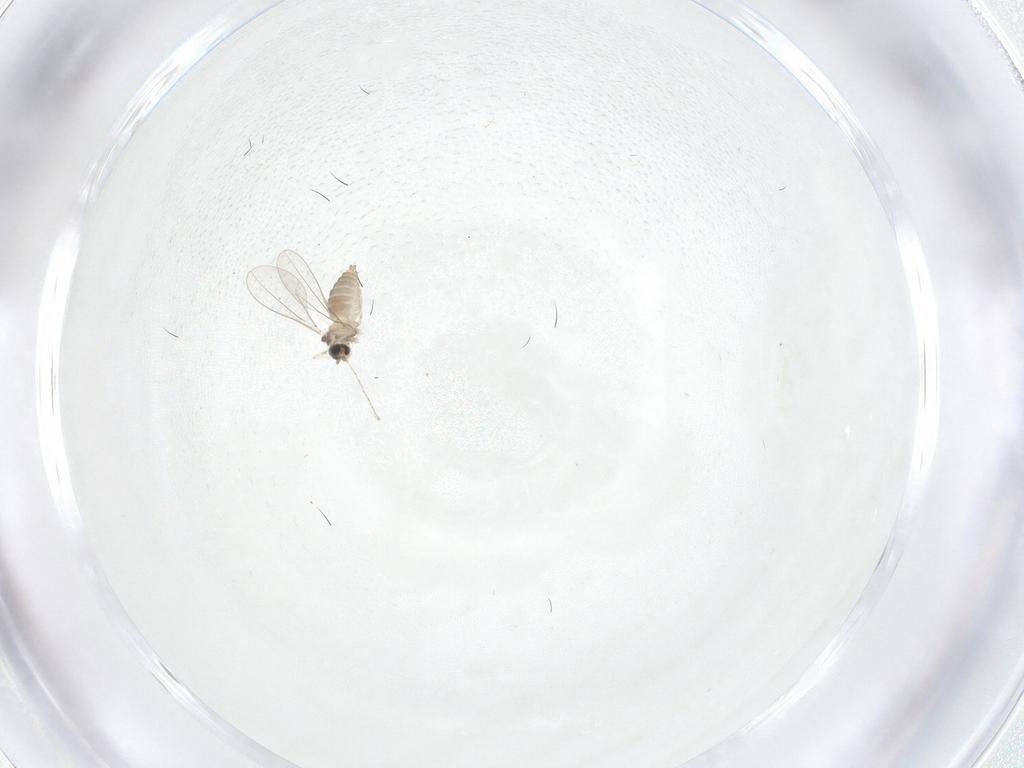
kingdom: Animalia
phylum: Arthropoda
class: Insecta
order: Diptera
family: Cecidomyiidae
